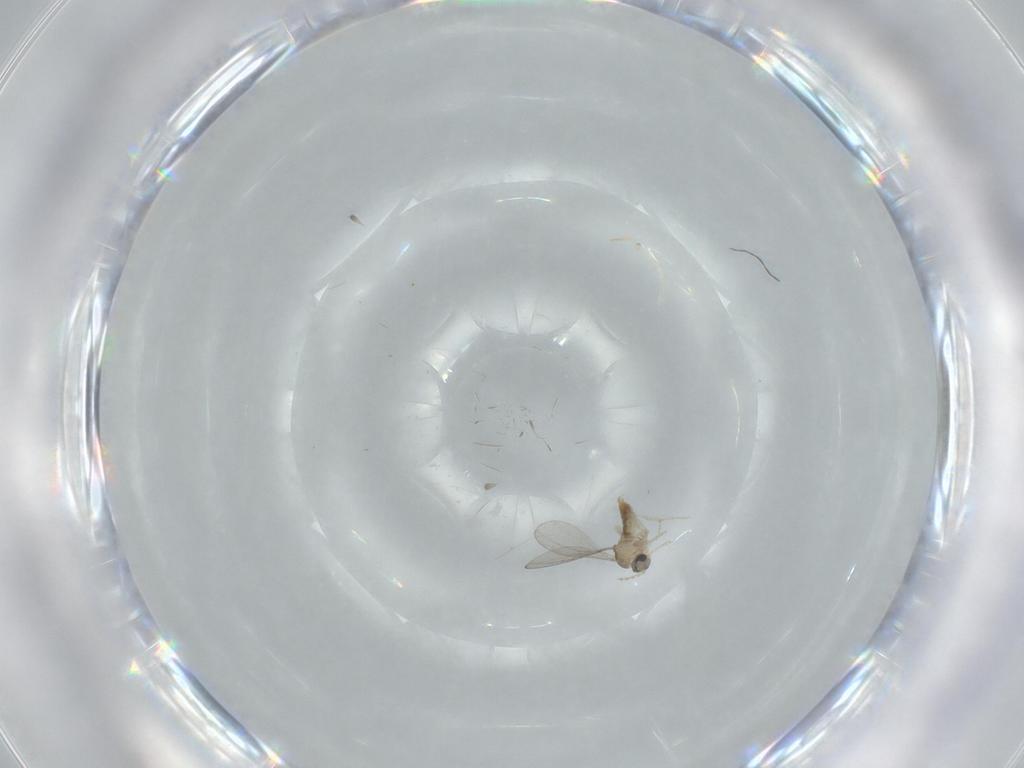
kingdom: Animalia
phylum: Arthropoda
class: Insecta
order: Diptera
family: Cecidomyiidae
